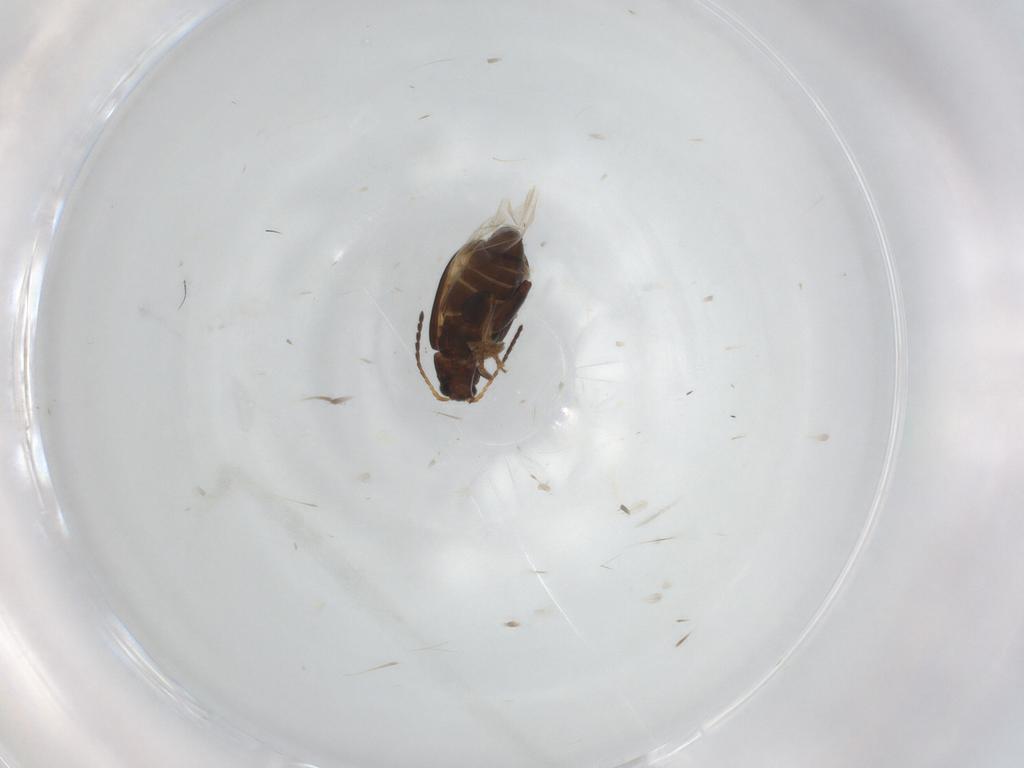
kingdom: Animalia
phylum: Arthropoda
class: Insecta
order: Coleoptera
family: Chrysomelidae
